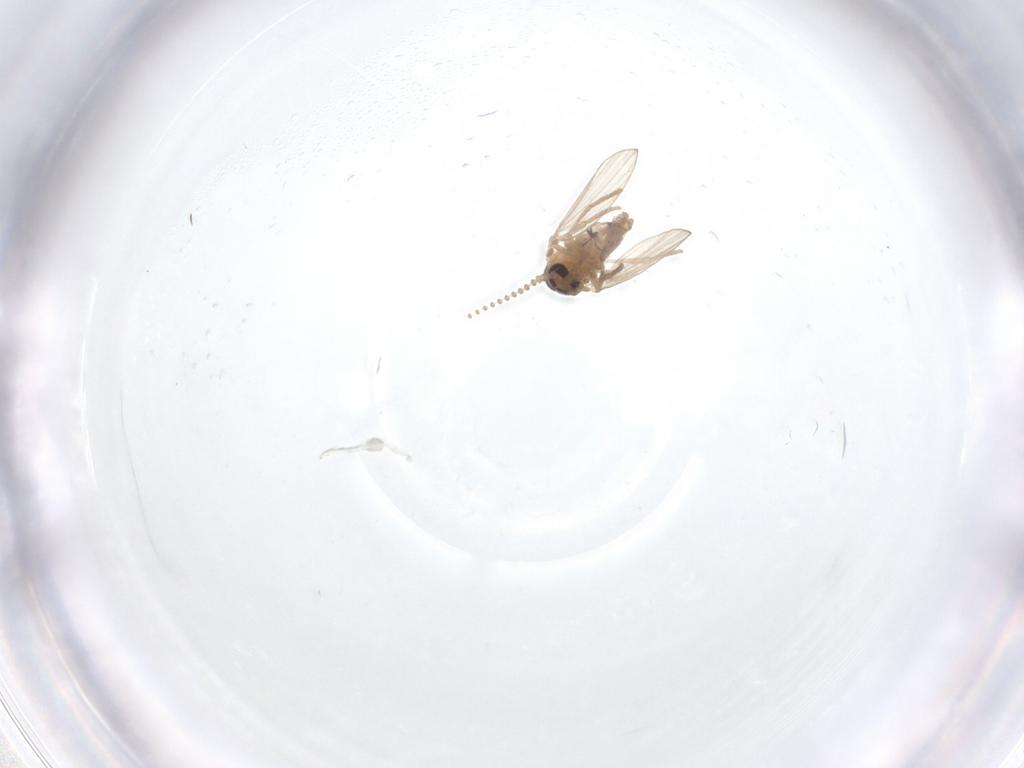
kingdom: Animalia
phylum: Arthropoda
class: Insecta
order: Diptera
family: Psychodidae
